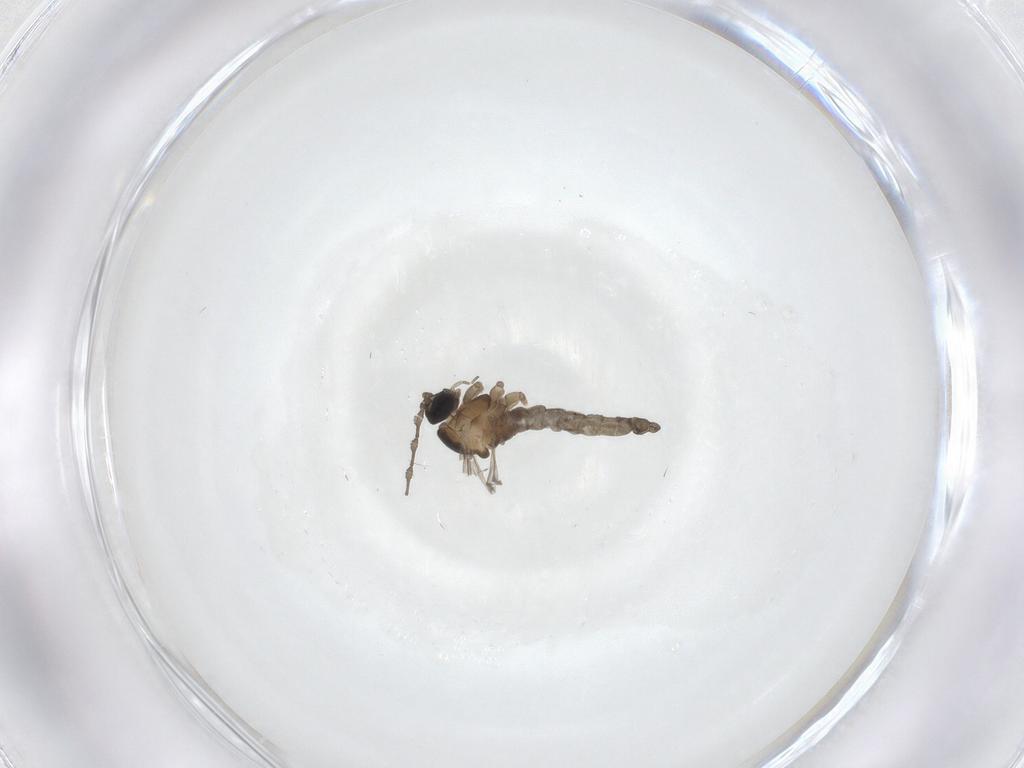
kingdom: Animalia
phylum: Arthropoda
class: Insecta
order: Diptera
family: Cecidomyiidae
